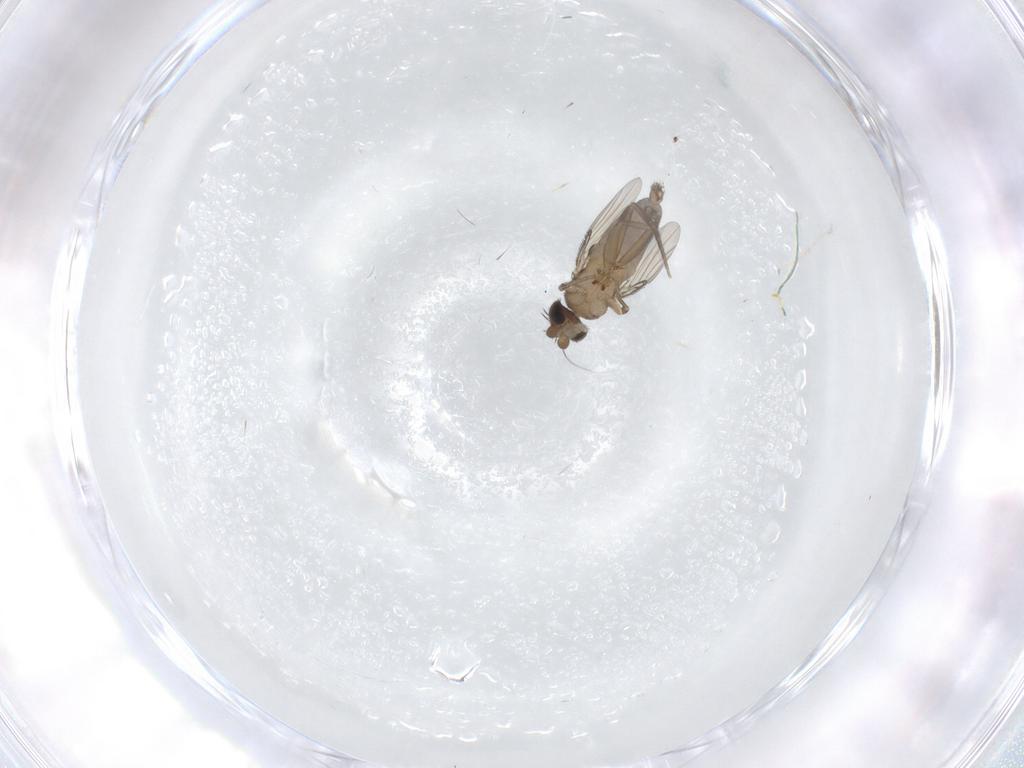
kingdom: Animalia
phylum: Arthropoda
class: Insecta
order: Diptera
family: Phoridae
